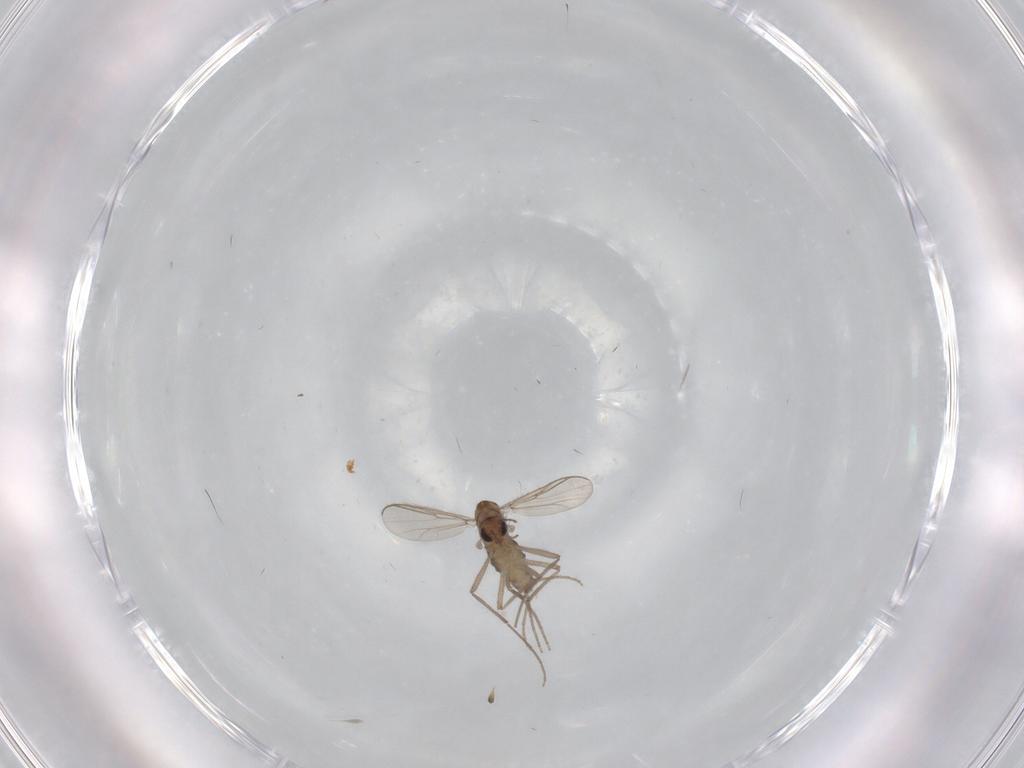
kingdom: Animalia
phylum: Arthropoda
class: Insecta
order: Diptera
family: Chironomidae
